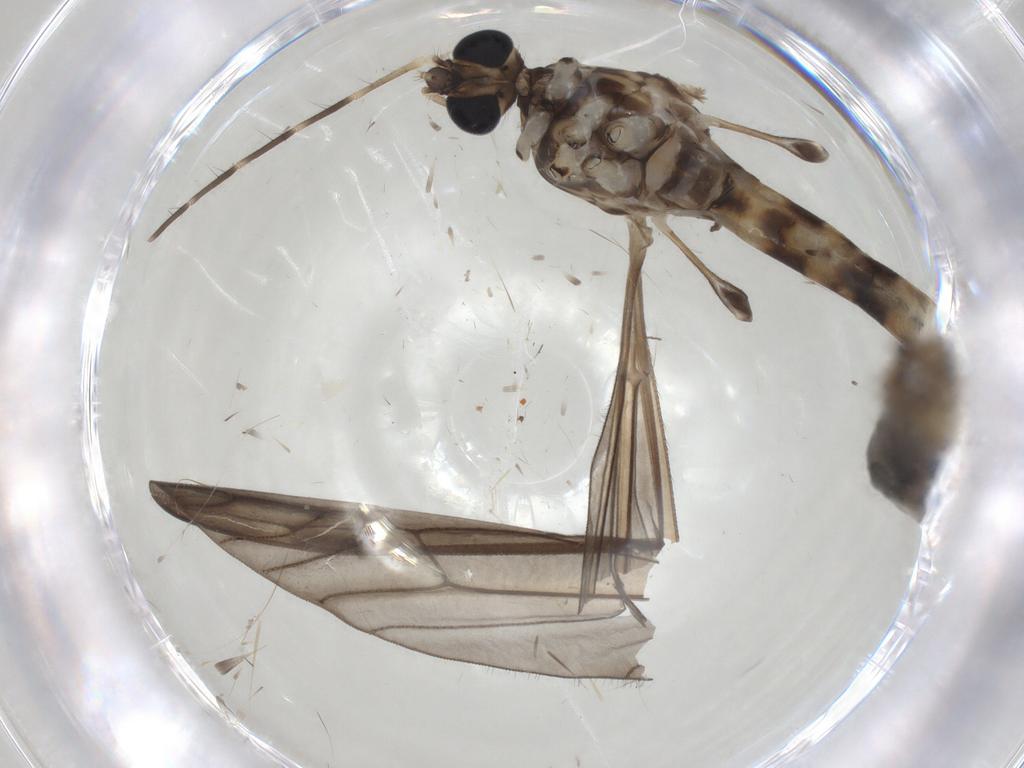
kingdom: Animalia
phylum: Arthropoda
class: Insecta
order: Diptera
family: Tipulidae
